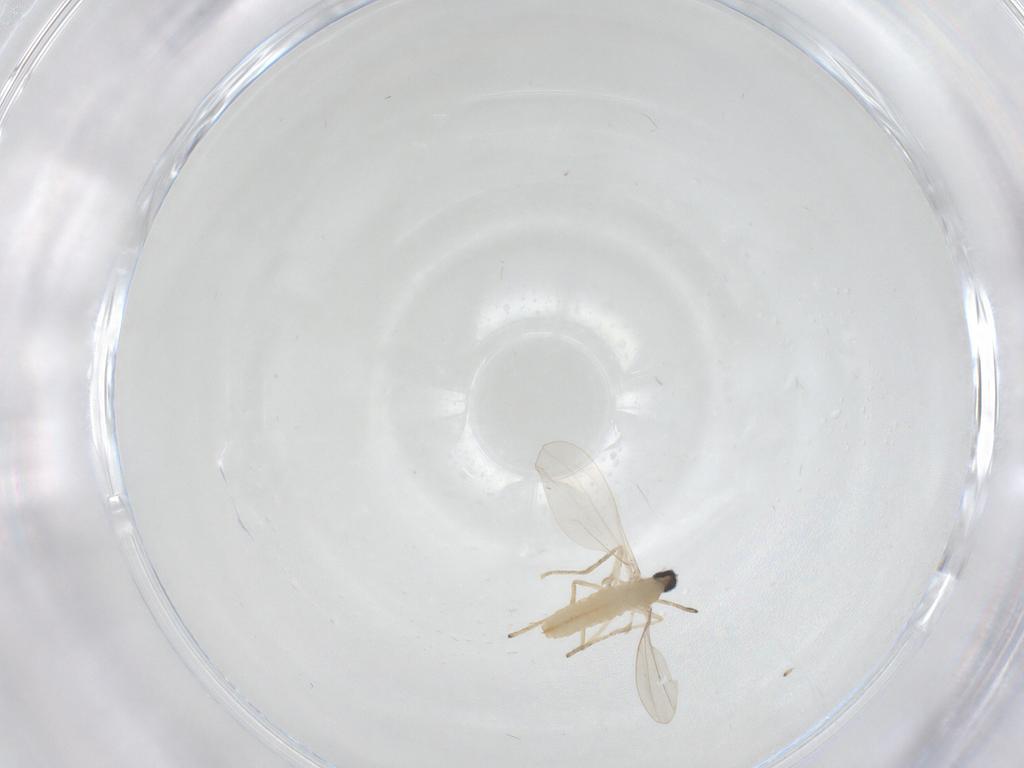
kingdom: Animalia
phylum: Arthropoda
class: Insecta
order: Diptera
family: Cecidomyiidae
